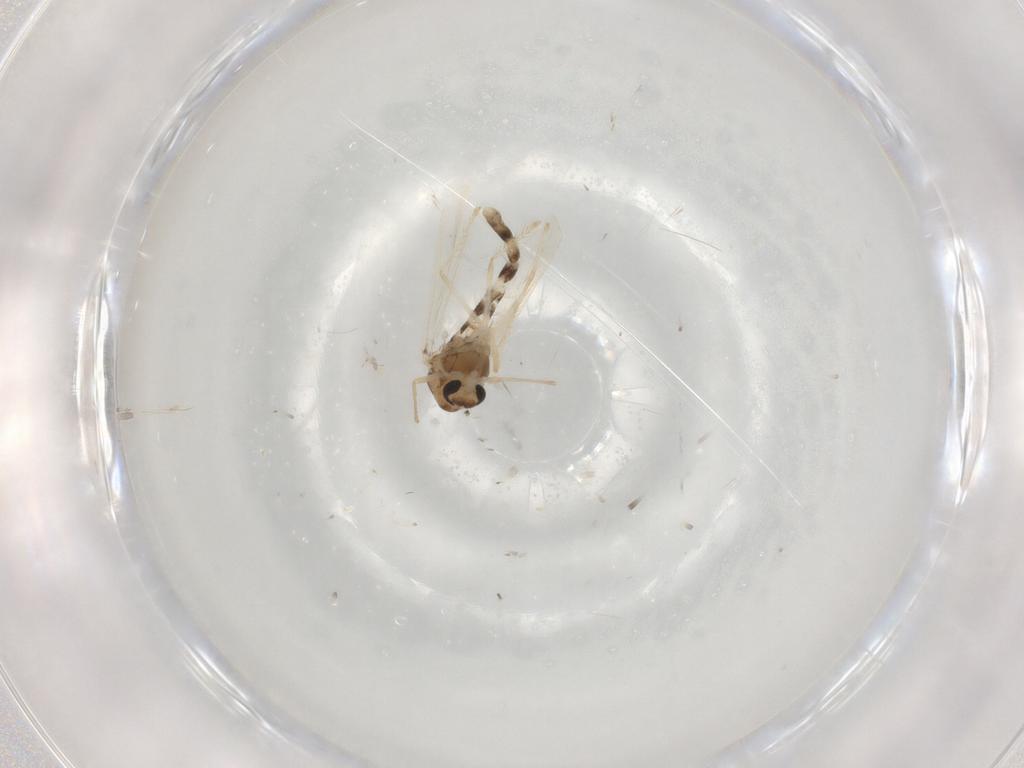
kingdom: Animalia
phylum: Arthropoda
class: Insecta
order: Diptera
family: Chironomidae
